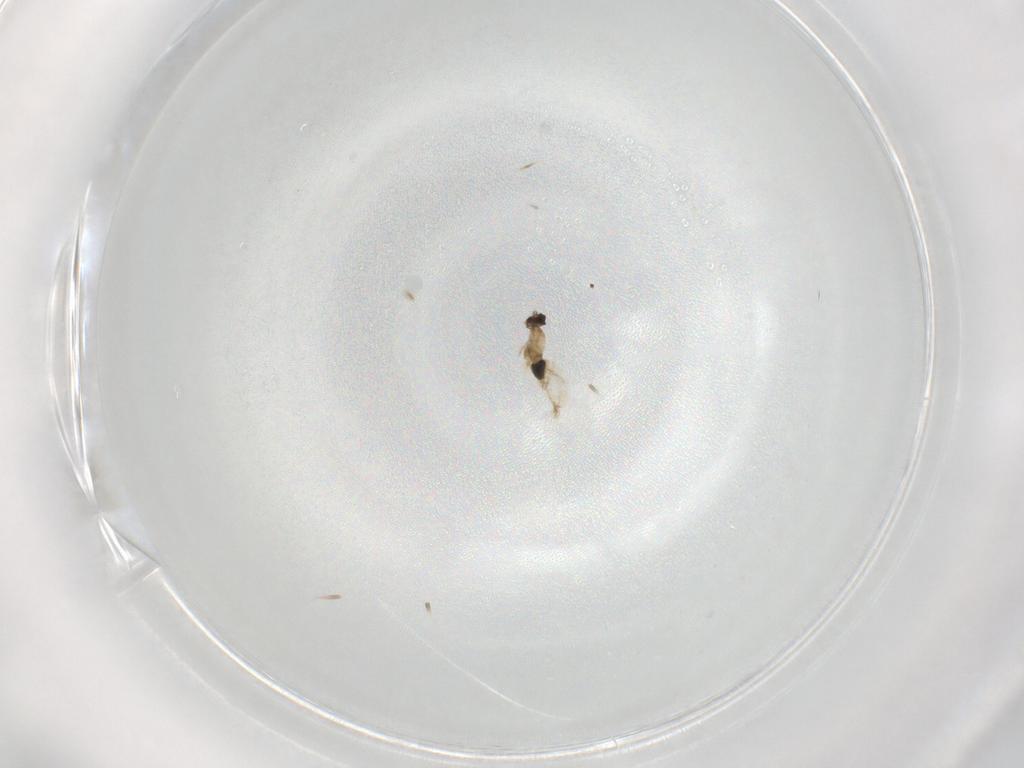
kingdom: Animalia
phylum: Arthropoda
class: Insecta
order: Diptera
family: Cecidomyiidae
